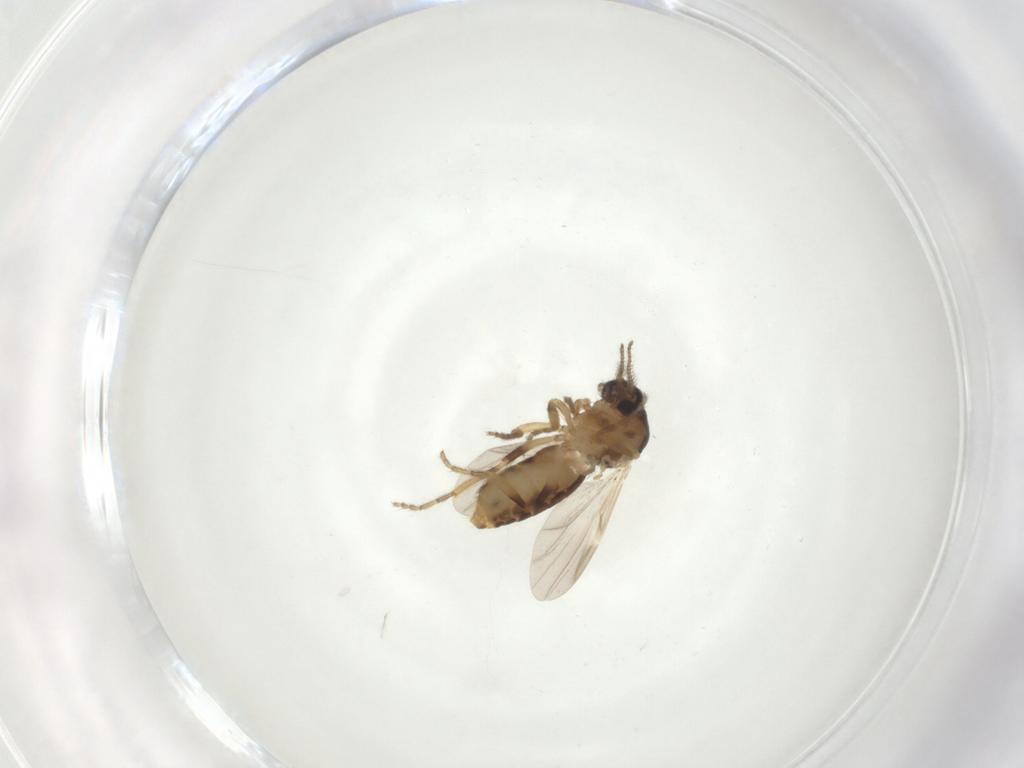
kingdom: Animalia
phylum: Arthropoda
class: Insecta
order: Diptera
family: Ceratopogonidae
